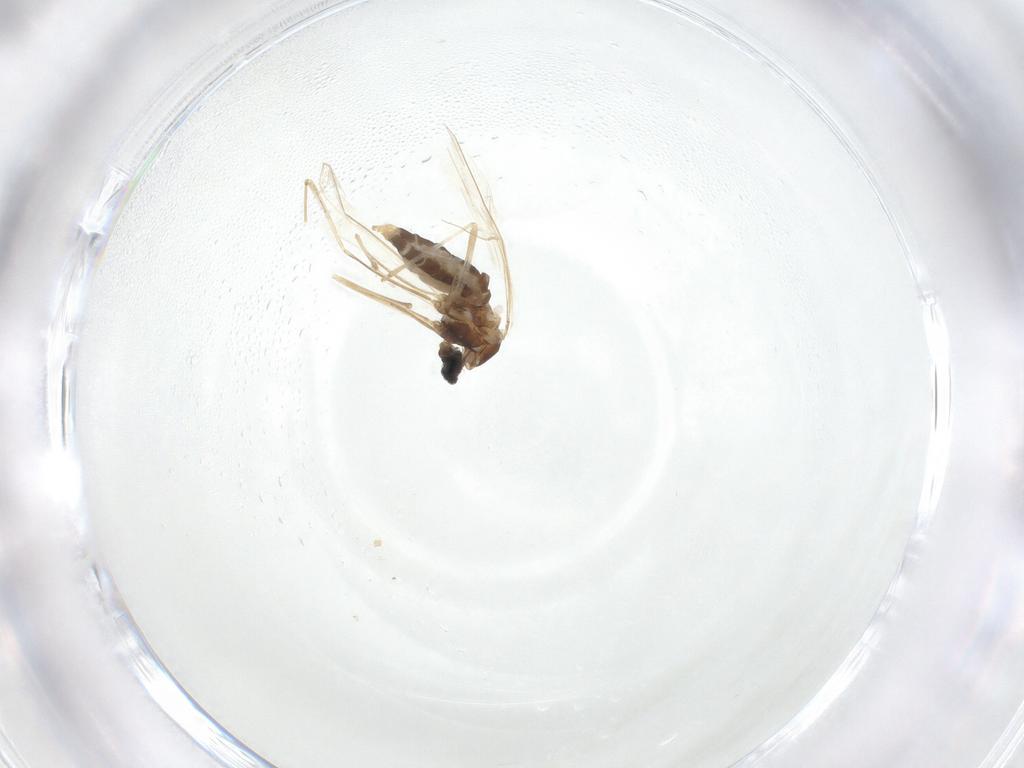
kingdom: Animalia
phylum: Arthropoda
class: Insecta
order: Diptera
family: Cecidomyiidae
